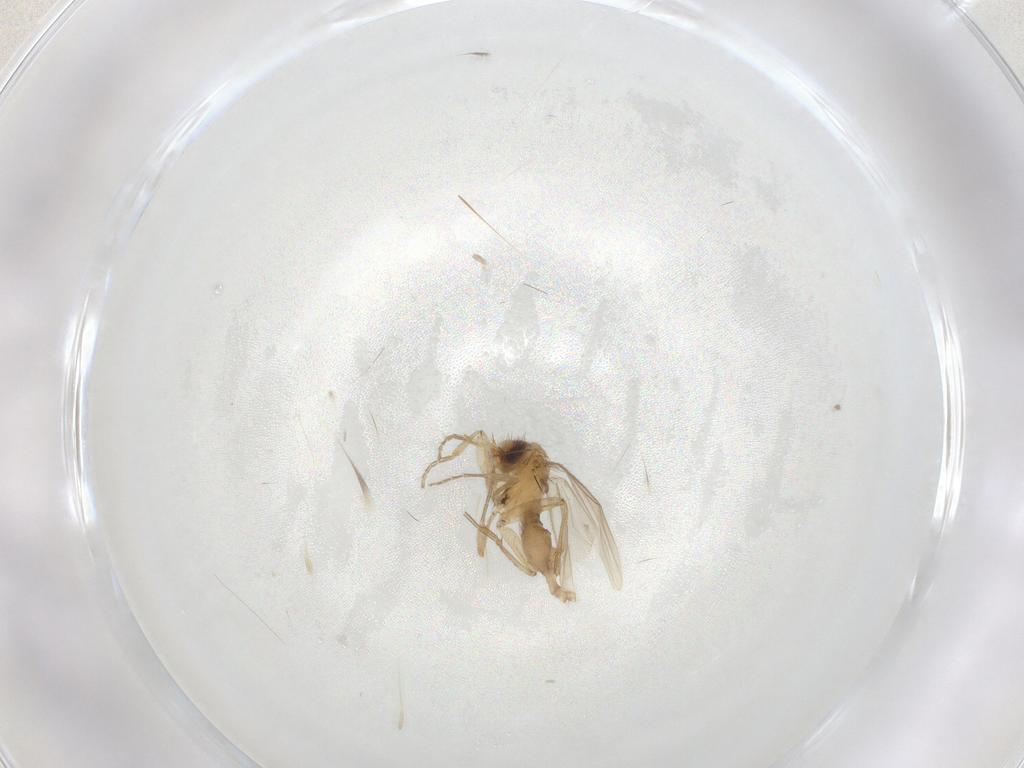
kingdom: Animalia
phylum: Arthropoda
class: Insecta
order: Diptera
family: Phoridae
